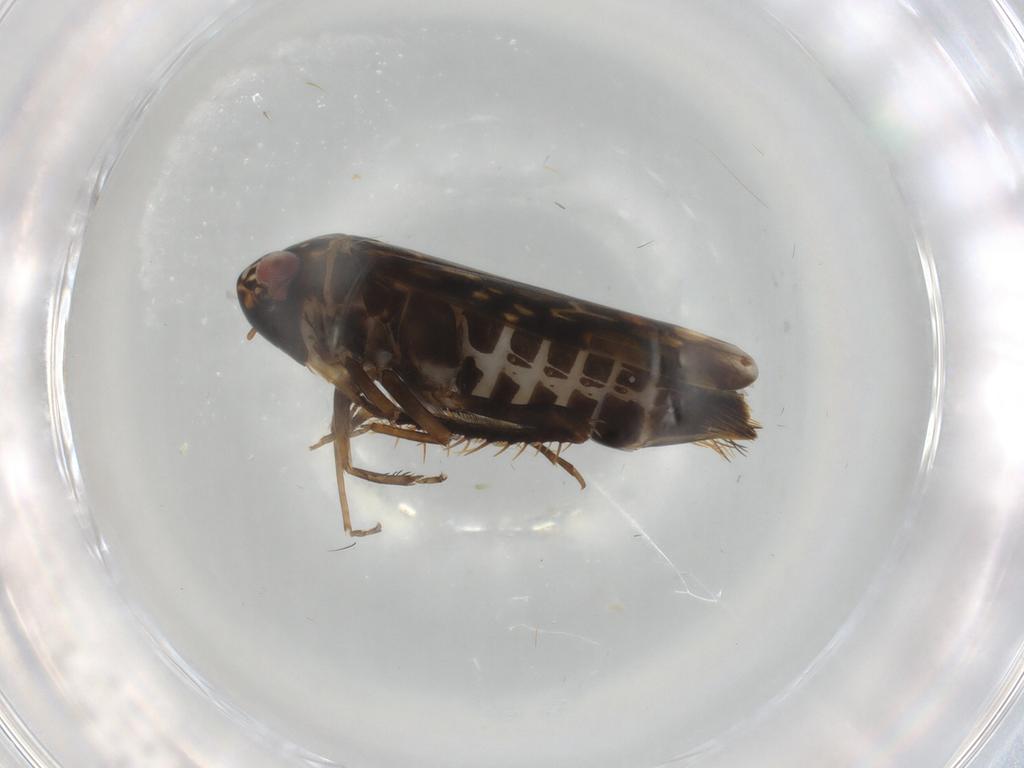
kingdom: Animalia
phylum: Arthropoda
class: Insecta
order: Hemiptera
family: Cicadellidae
